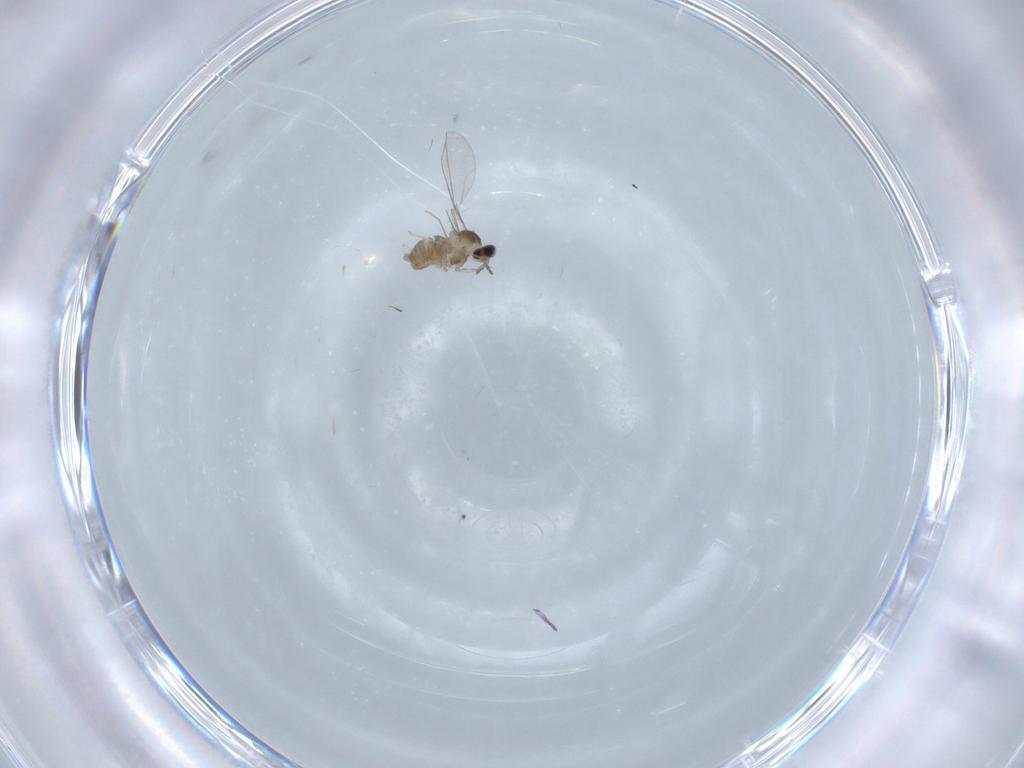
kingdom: Animalia
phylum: Arthropoda
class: Insecta
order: Diptera
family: Cecidomyiidae
